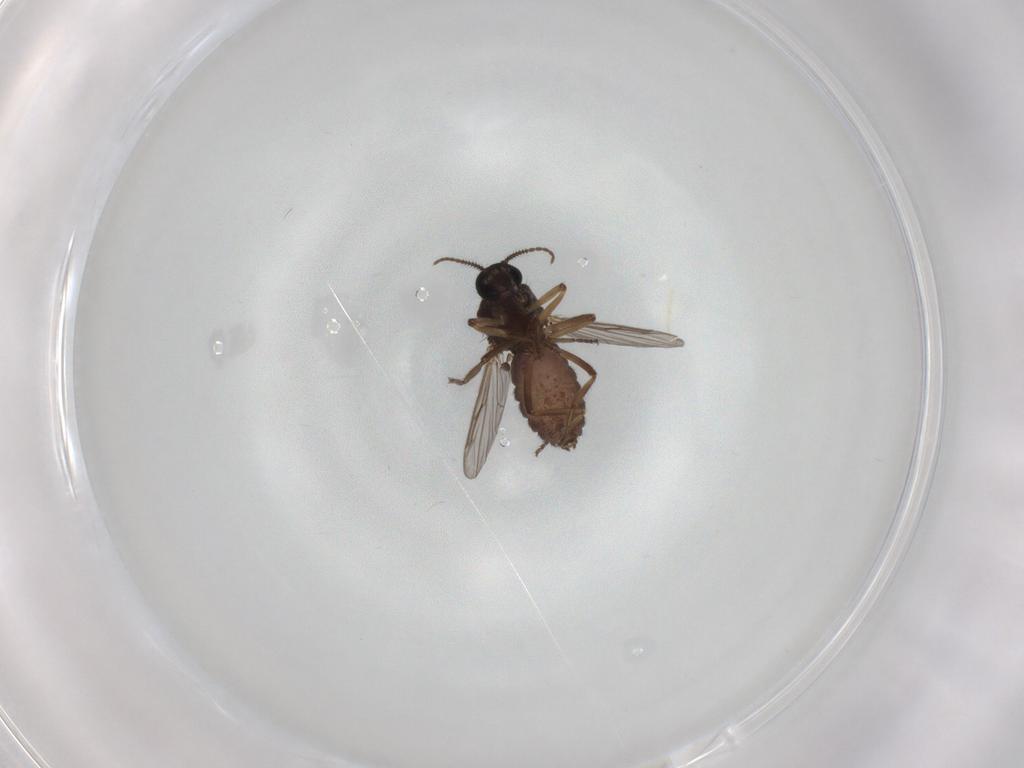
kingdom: Animalia
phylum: Arthropoda
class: Insecta
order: Diptera
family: Ceratopogonidae
